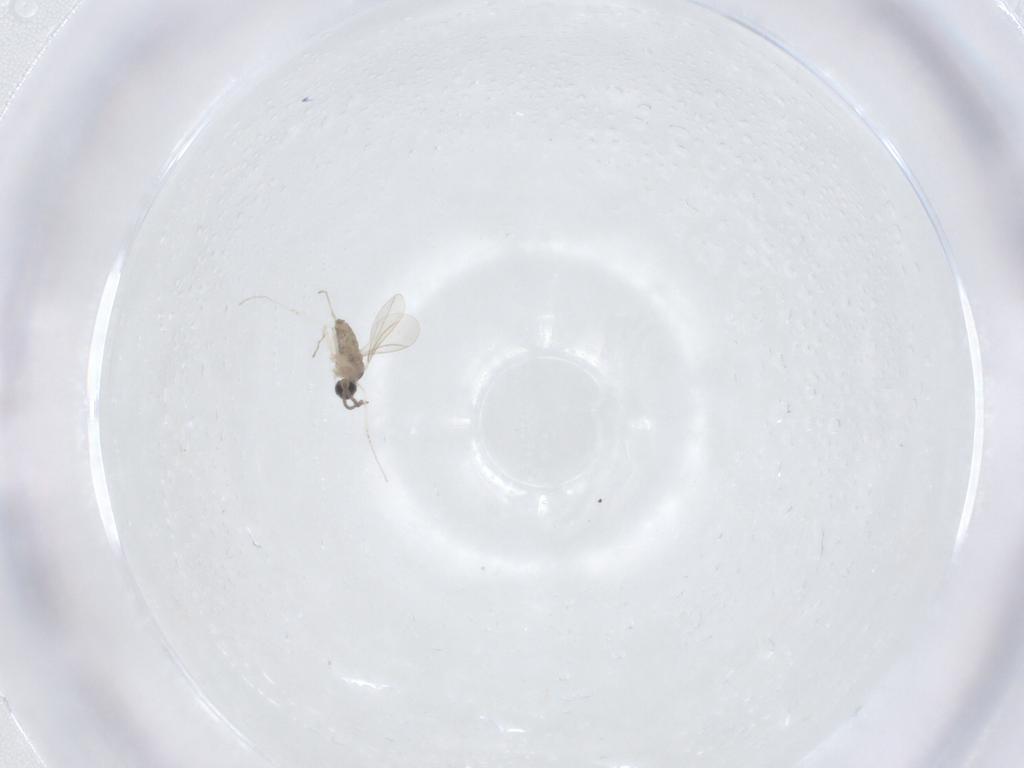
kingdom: Animalia
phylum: Arthropoda
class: Insecta
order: Diptera
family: Cecidomyiidae
